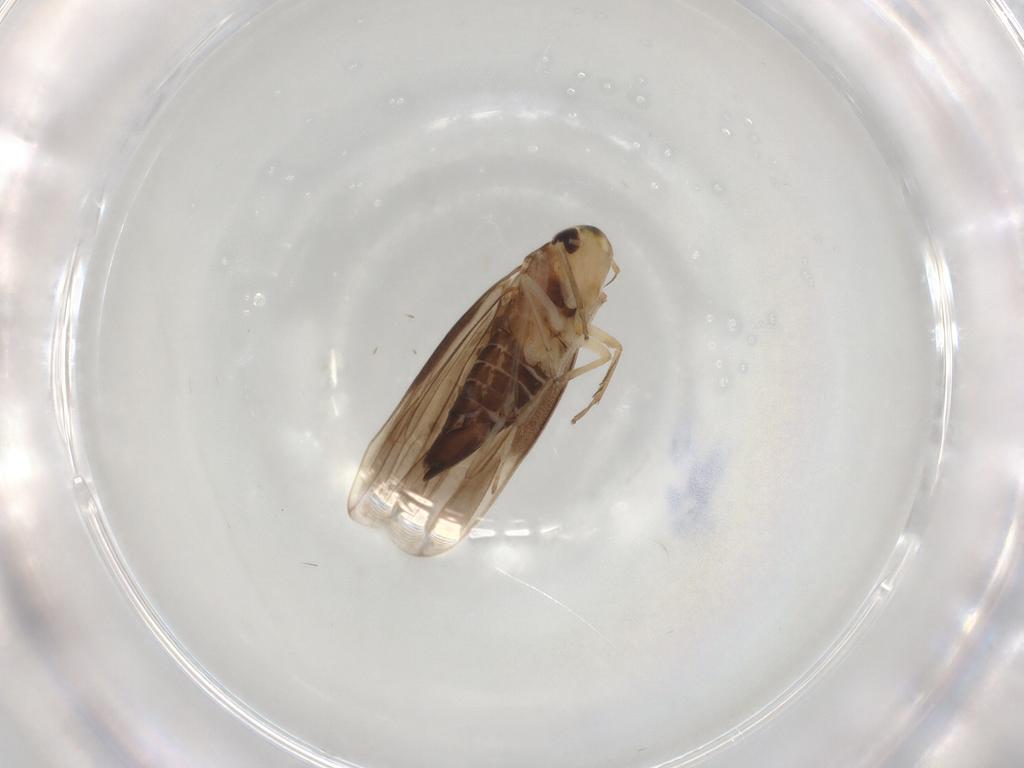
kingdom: Animalia
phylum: Arthropoda
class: Insecta
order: Hemiptera
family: Cicadellidae
